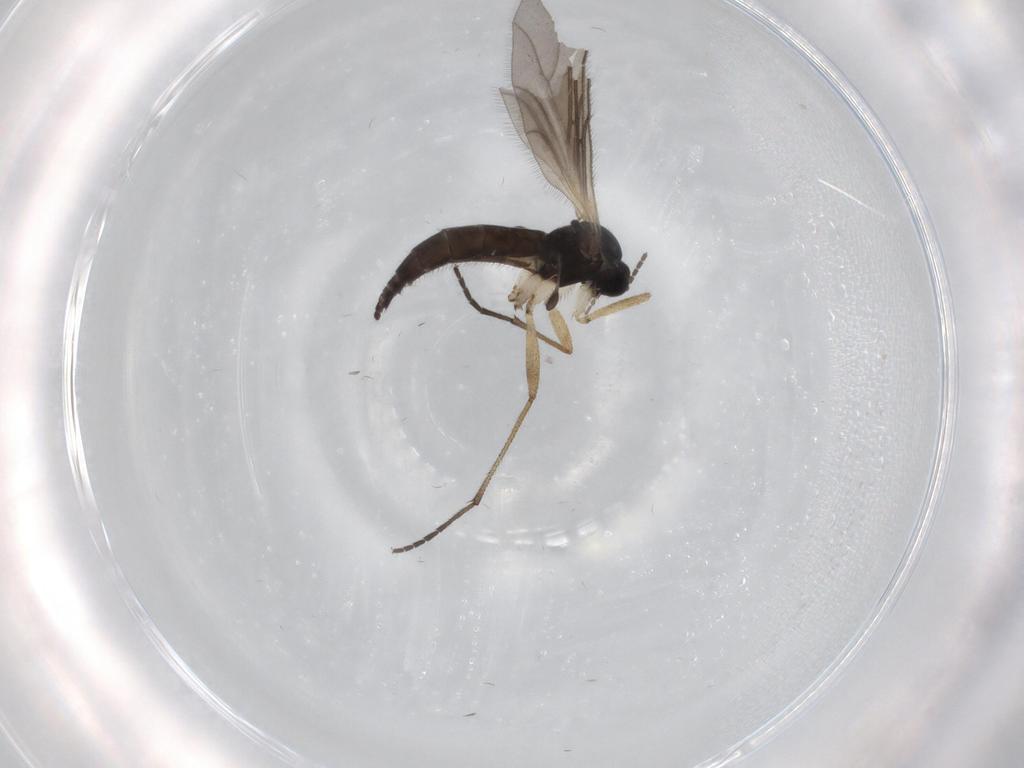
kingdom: Animalia
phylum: Arthropoda
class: Insecta
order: Diptera
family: Sciaridae
